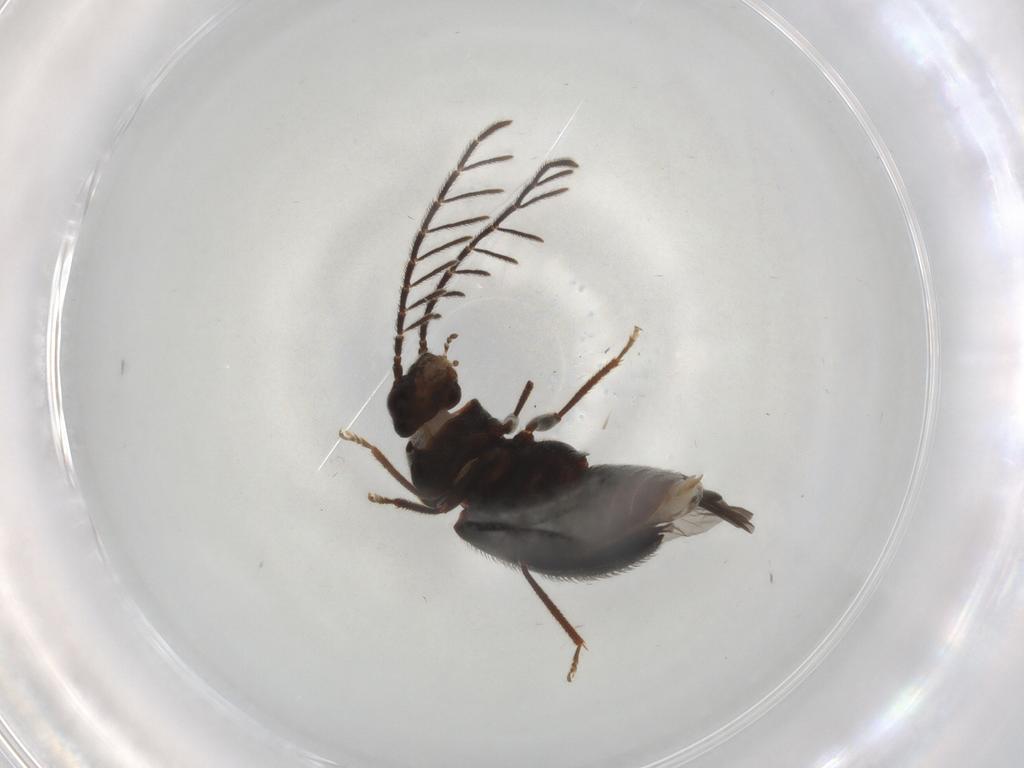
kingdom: Animalia
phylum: Arthropoda
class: Insecta
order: Coleoptera
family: Ptilodactylidae
